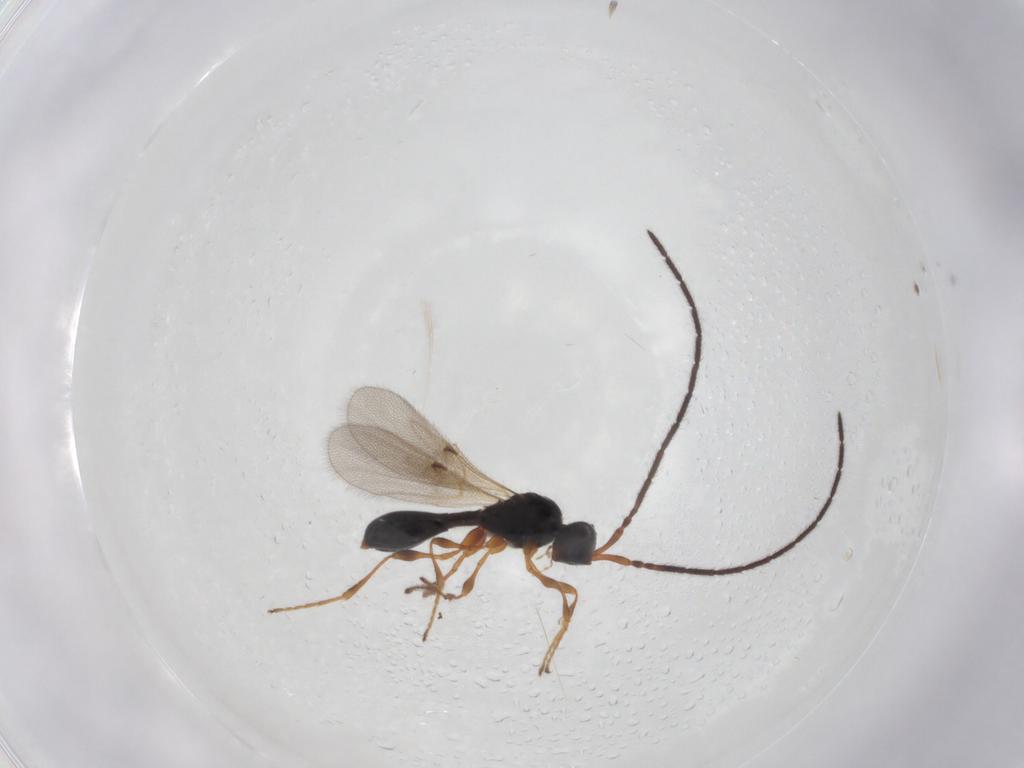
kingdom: Animalia
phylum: Arthropoda
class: Insecta
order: Hymenoptera
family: Diapriidae
